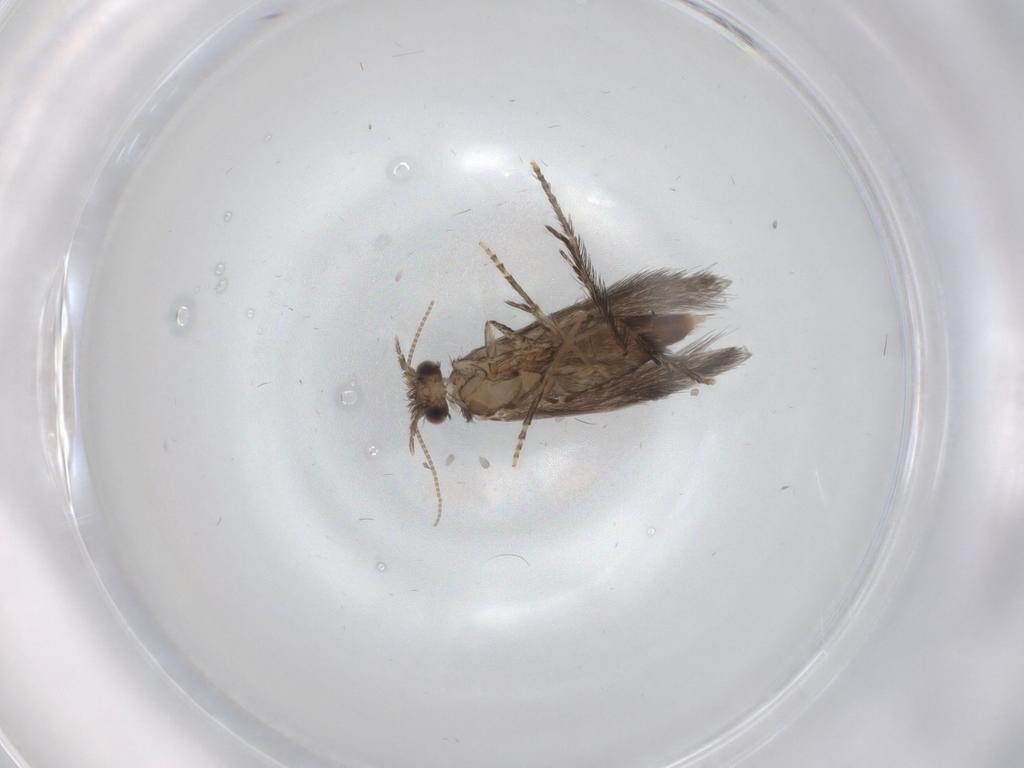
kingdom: Animalia
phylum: Arthropoda
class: Insecta
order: Trichoptera
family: Hydroptilidae
